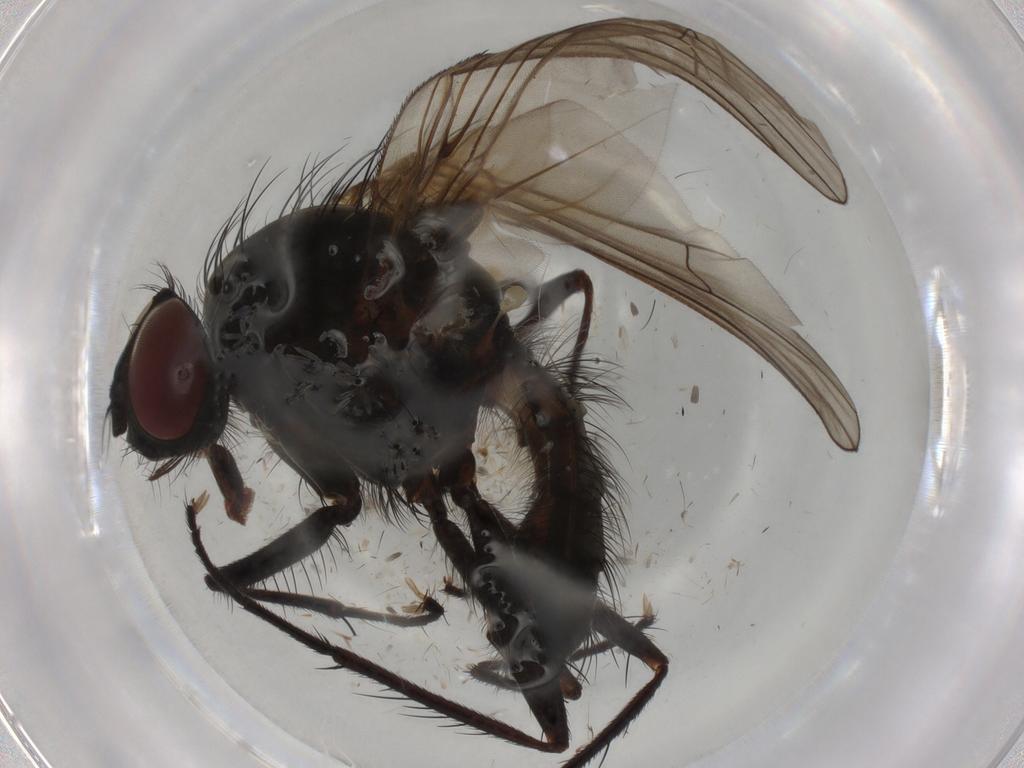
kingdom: Animalia
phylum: Arthropoda
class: Insecta
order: Diptera
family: Anthomyiidae
